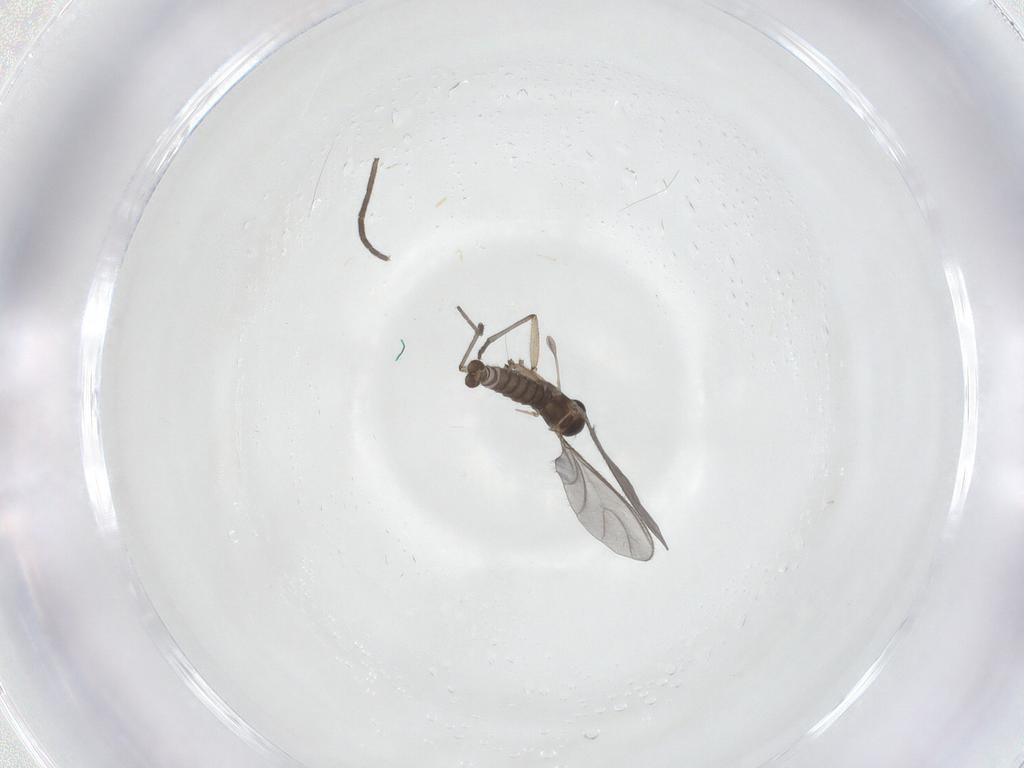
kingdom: Animalia
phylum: Arthropoda
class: Insecta
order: Diptera
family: Sciaridae
